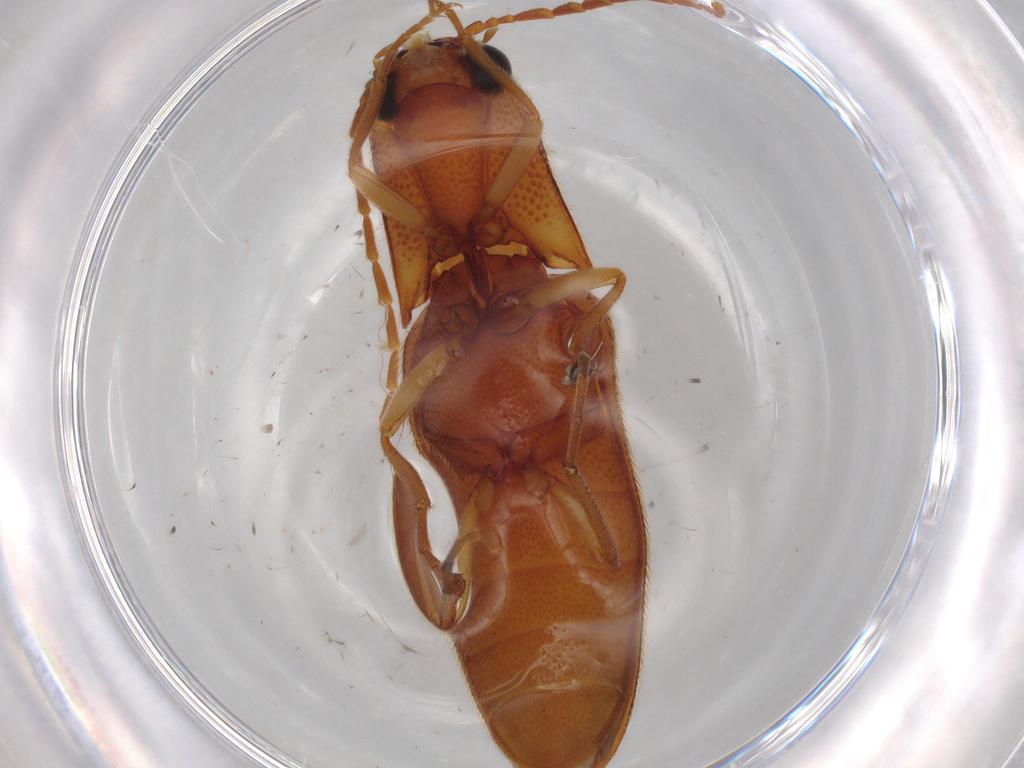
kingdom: Animalia
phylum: Arthropoda
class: Insecta
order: Coleoptera
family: Elateridae
